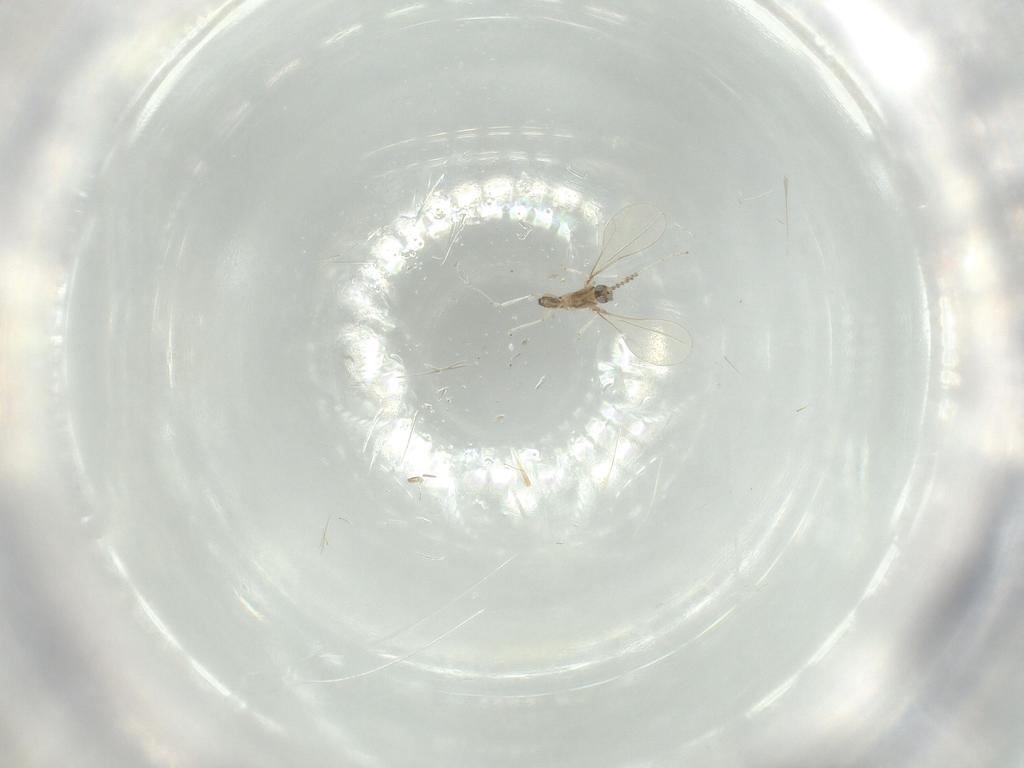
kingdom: Animalia
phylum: Arthropoda
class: Insecta
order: Diptera
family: Cecidomyiidae
